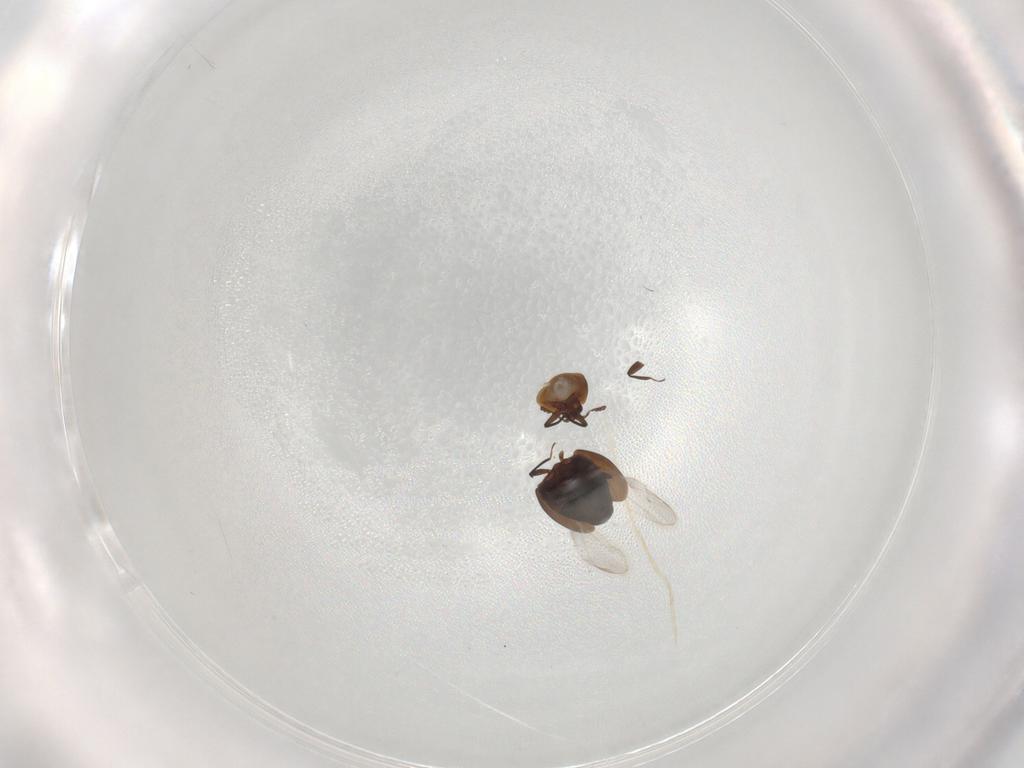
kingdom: Animalia
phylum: Arthropoda
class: Insecta
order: Coleoptera
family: Corylophidae
